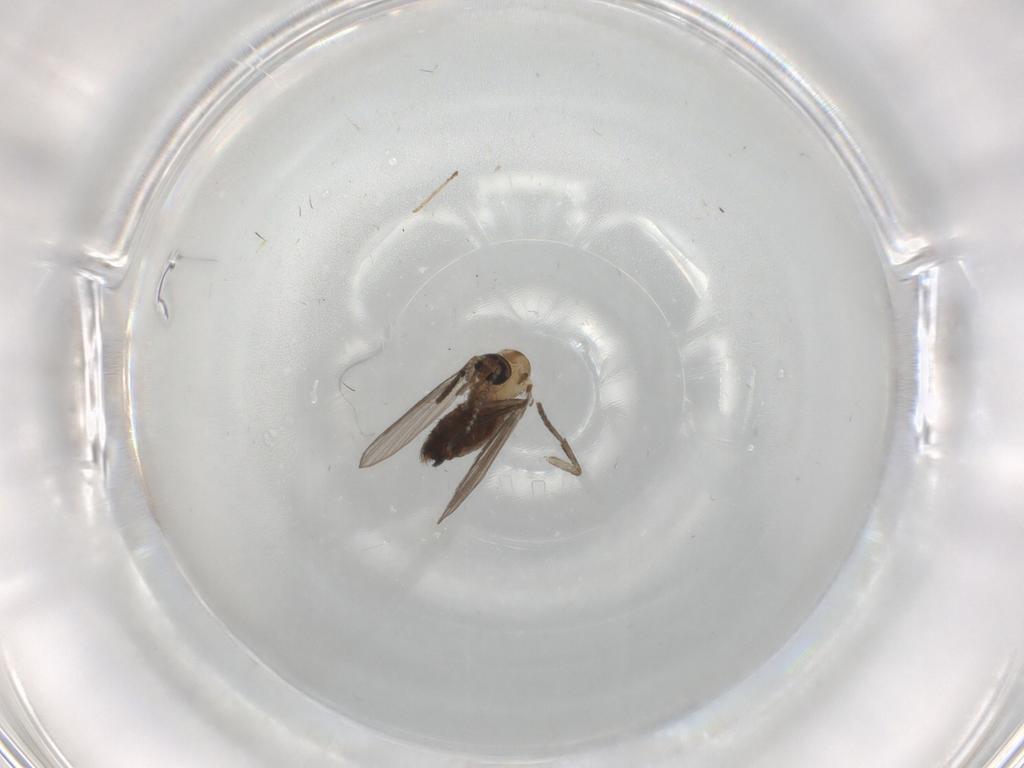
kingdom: Animalia
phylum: Arthropoda
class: Insecta
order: Diptera
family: Psychodidae
